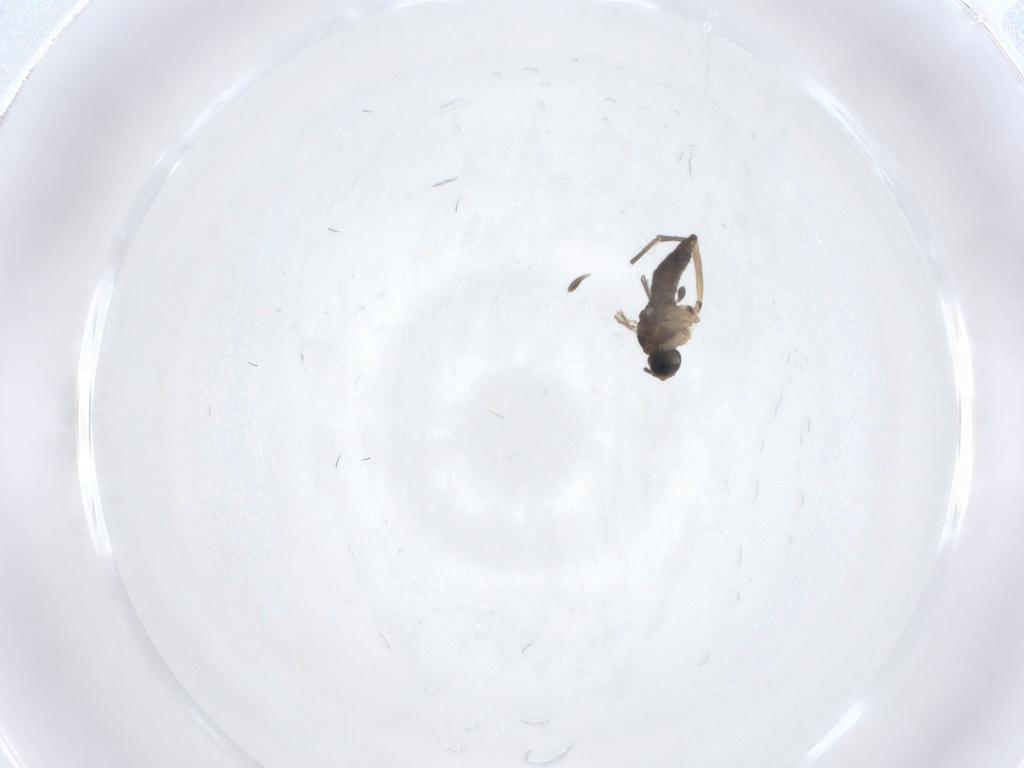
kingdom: Animalia
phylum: Arthropoda
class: Insecta
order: Diptera
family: Sciaridae
